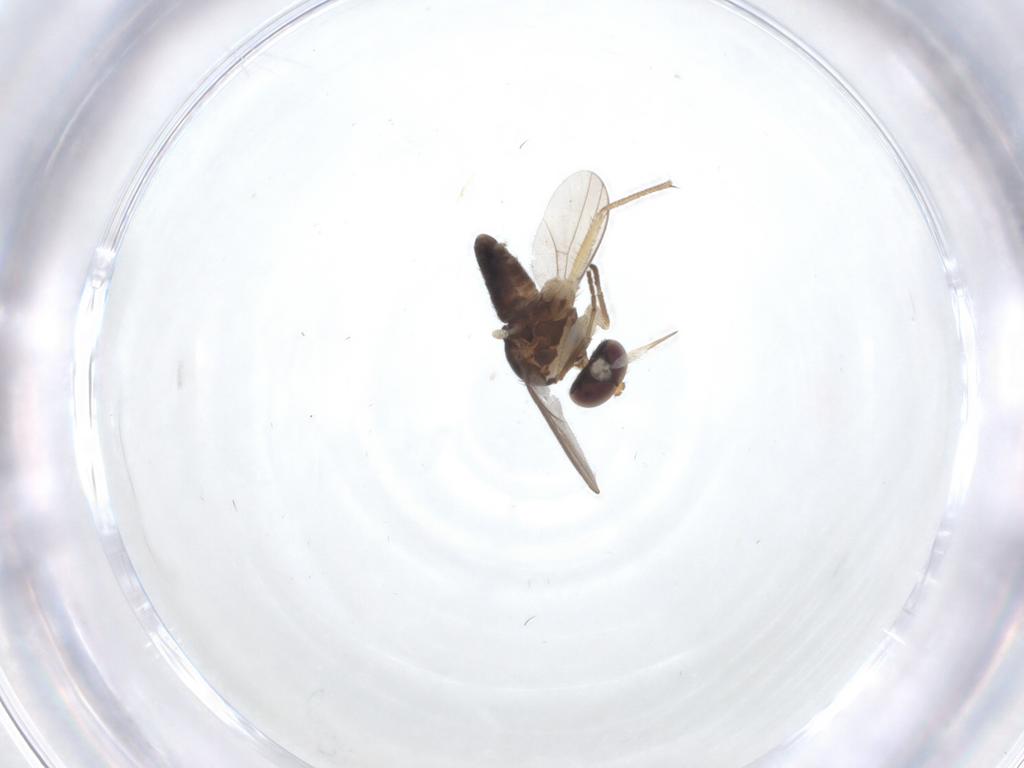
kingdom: Animalia
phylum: Arthropoda
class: Insecta
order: Diptera
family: Dolichopodidae
